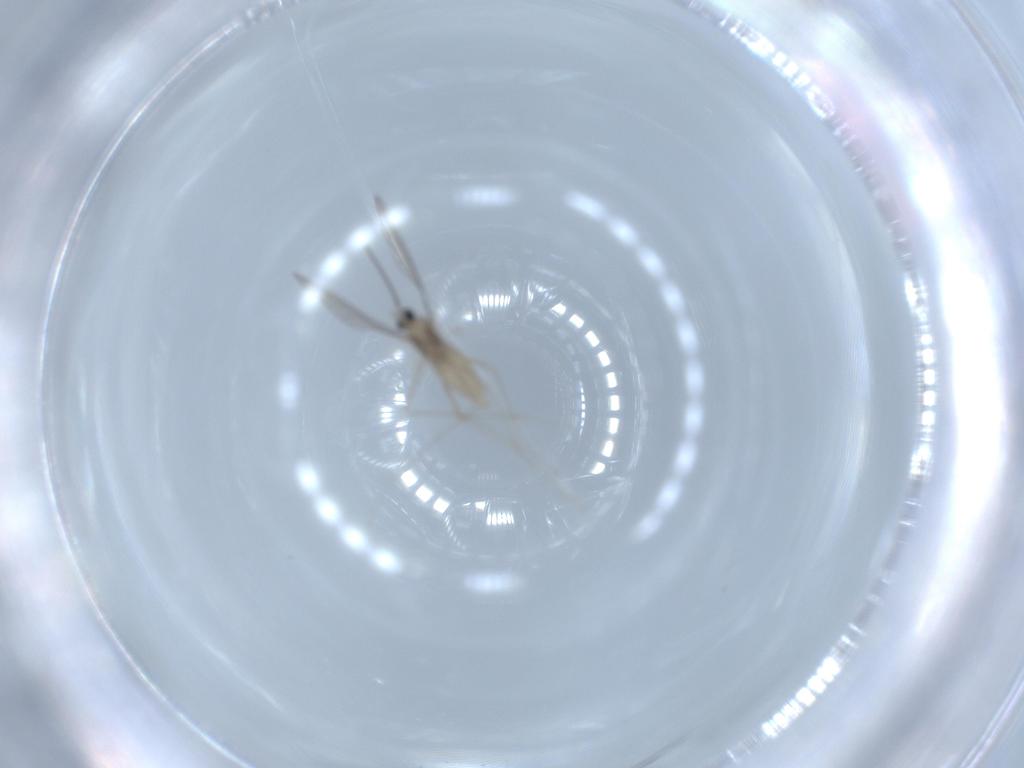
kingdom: Animalia
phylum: Arthropoda
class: Insecta
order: Diptera
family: Cecidomyiidae
